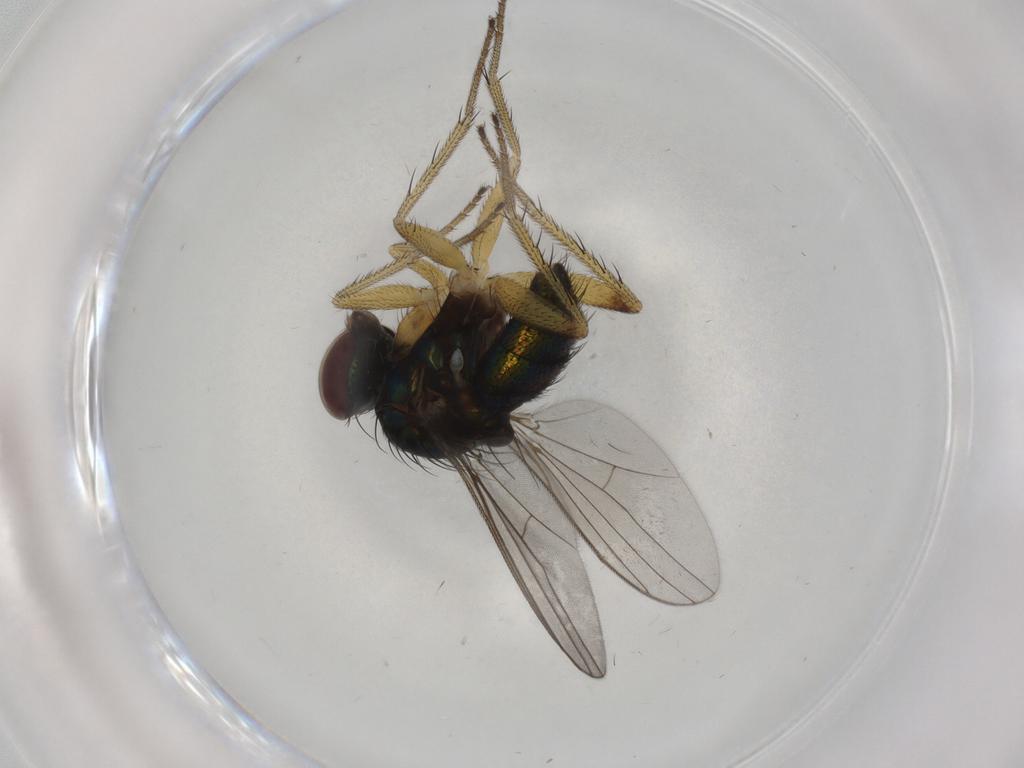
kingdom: Animalia
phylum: Arthropoda
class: Insecta
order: Diptera
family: Dolichopodidae
